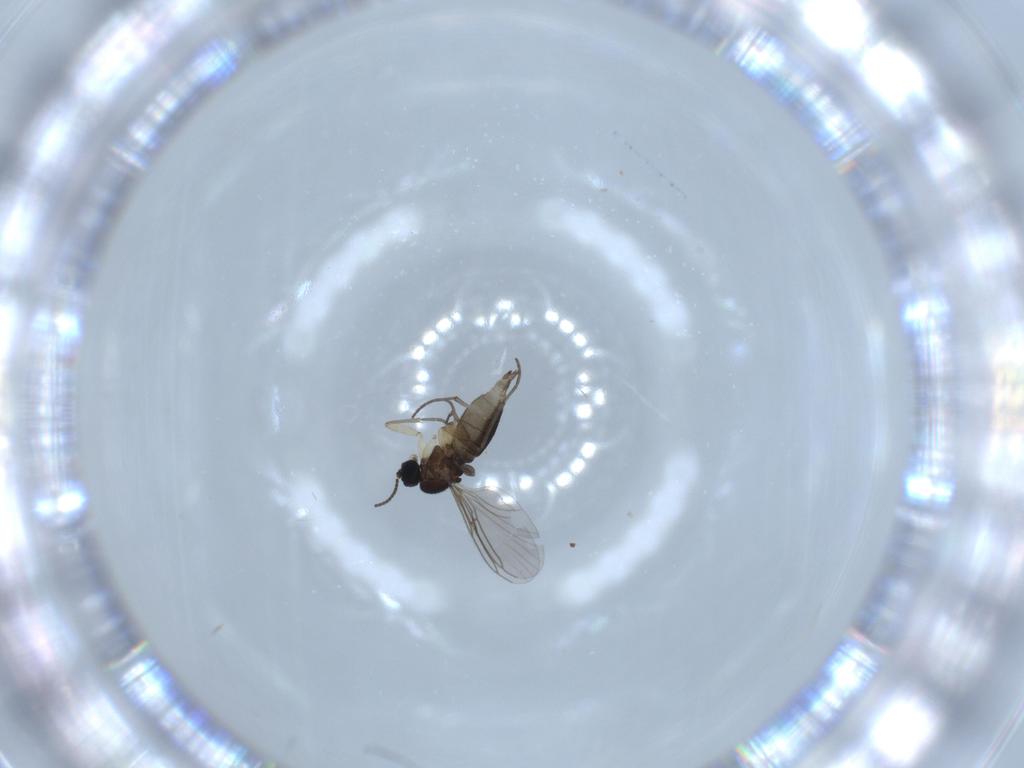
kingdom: Animalia
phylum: Arthropoda
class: Insecta
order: Diptera
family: Sciaridae
